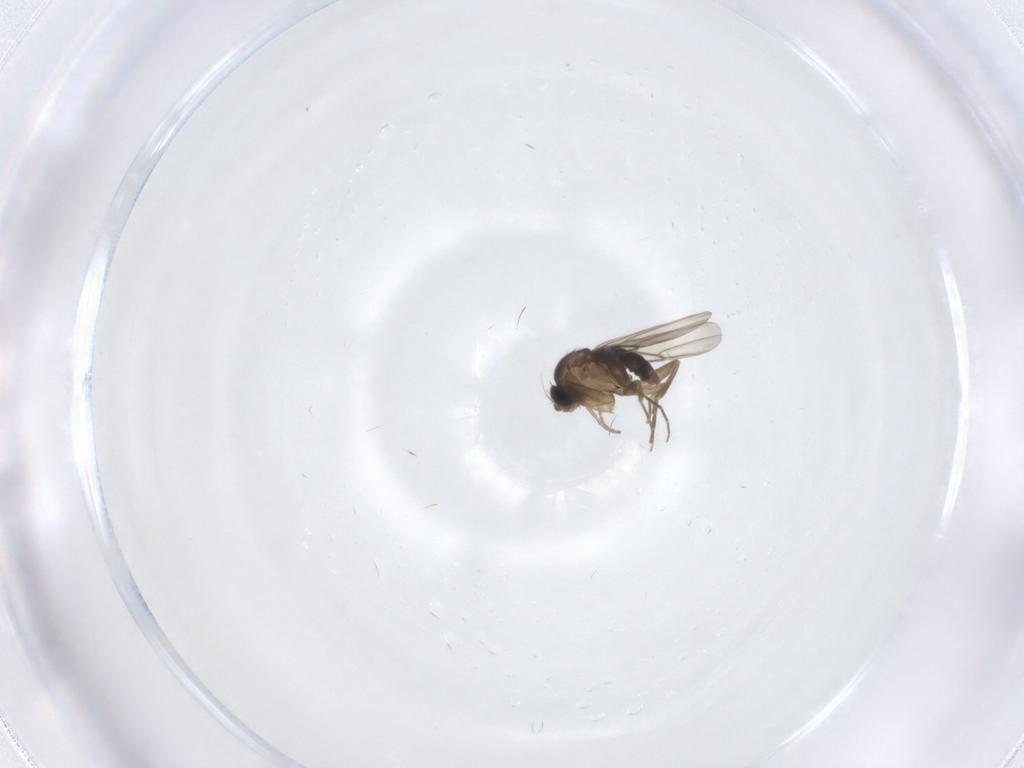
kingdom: Animalia
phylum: Arthropoda
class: Insecta
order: Diptera
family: Phoridae
